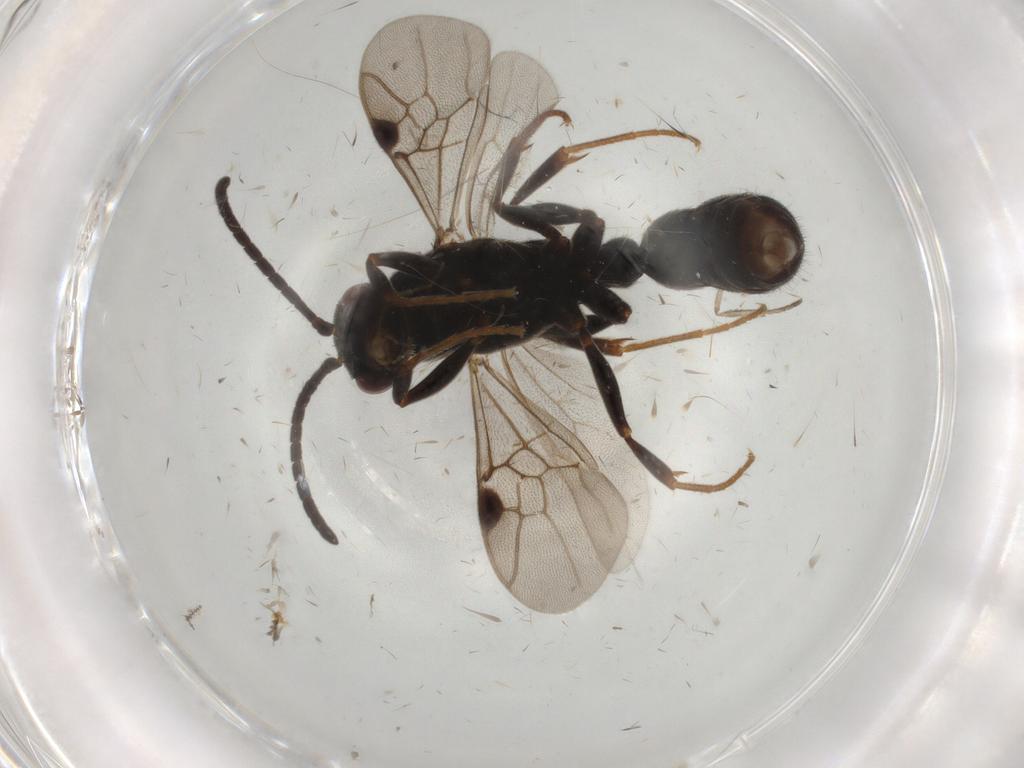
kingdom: Animalia
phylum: Arthropoda
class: Insecta
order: Hymenoptera
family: Formicidae
